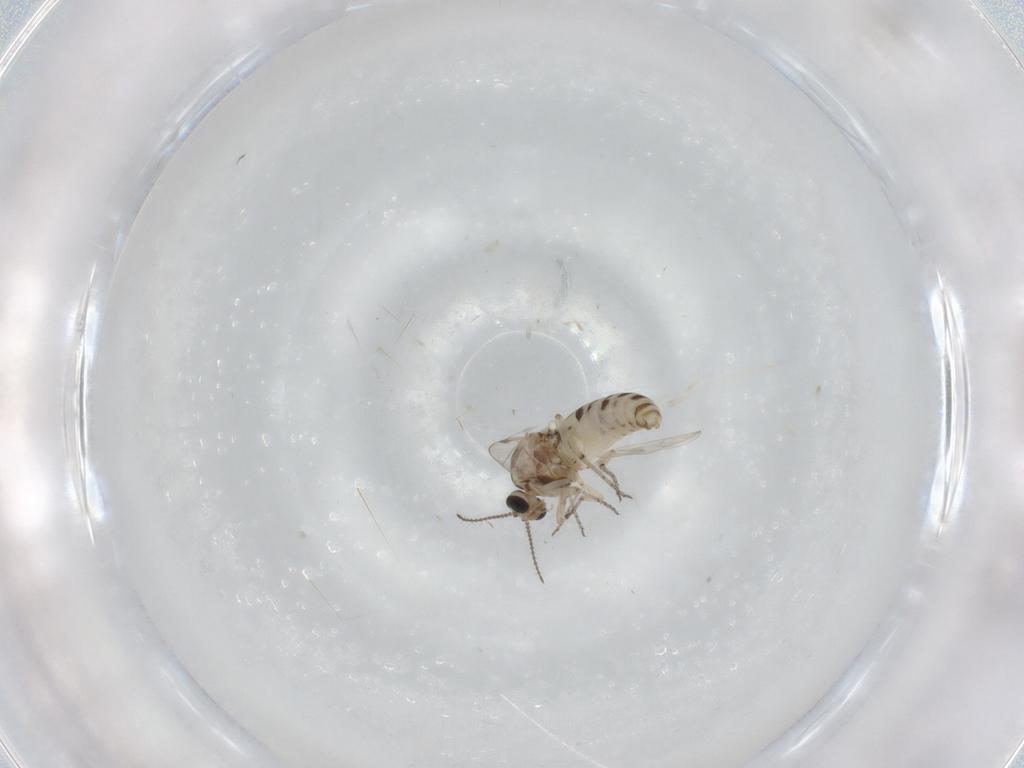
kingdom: Animalia
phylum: Arthropoda
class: Insecta
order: Diptera
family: Ceratopogonidae
